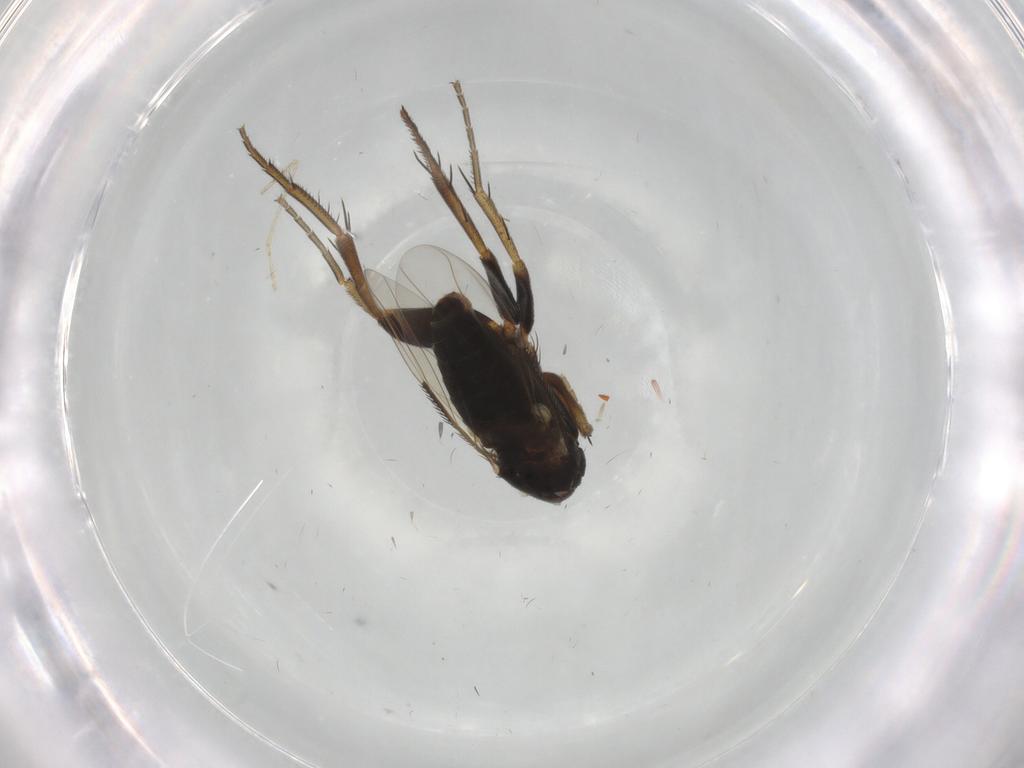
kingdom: Animalia
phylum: Arthropoda
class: Insecta
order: Diptera
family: Phoridae
